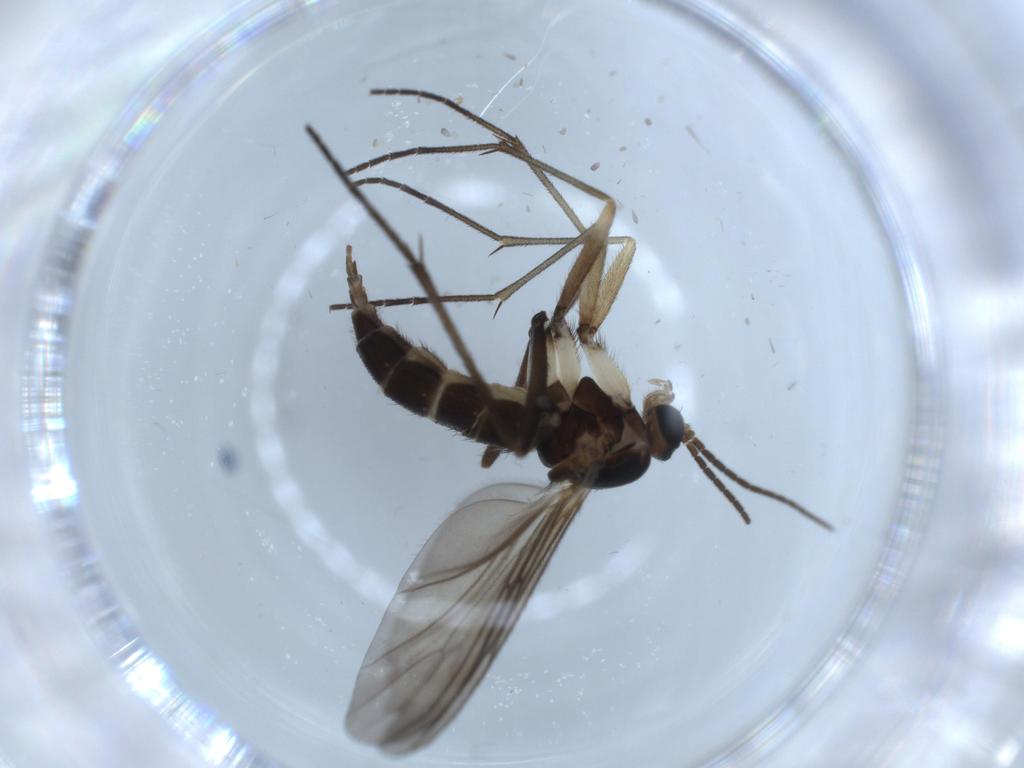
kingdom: Animalia
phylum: Arthropoda
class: Insecta
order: Diptera
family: Sciaridae
